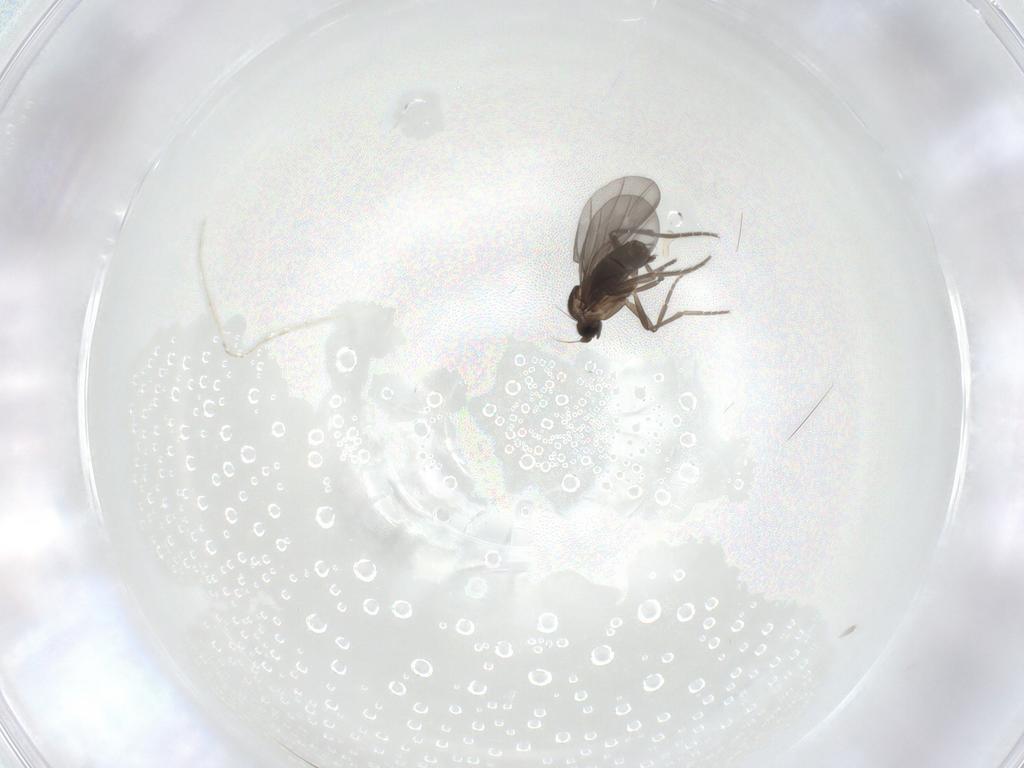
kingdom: Animalia
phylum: Arthropoda
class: Insecta
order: Diptera
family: Phoridae
